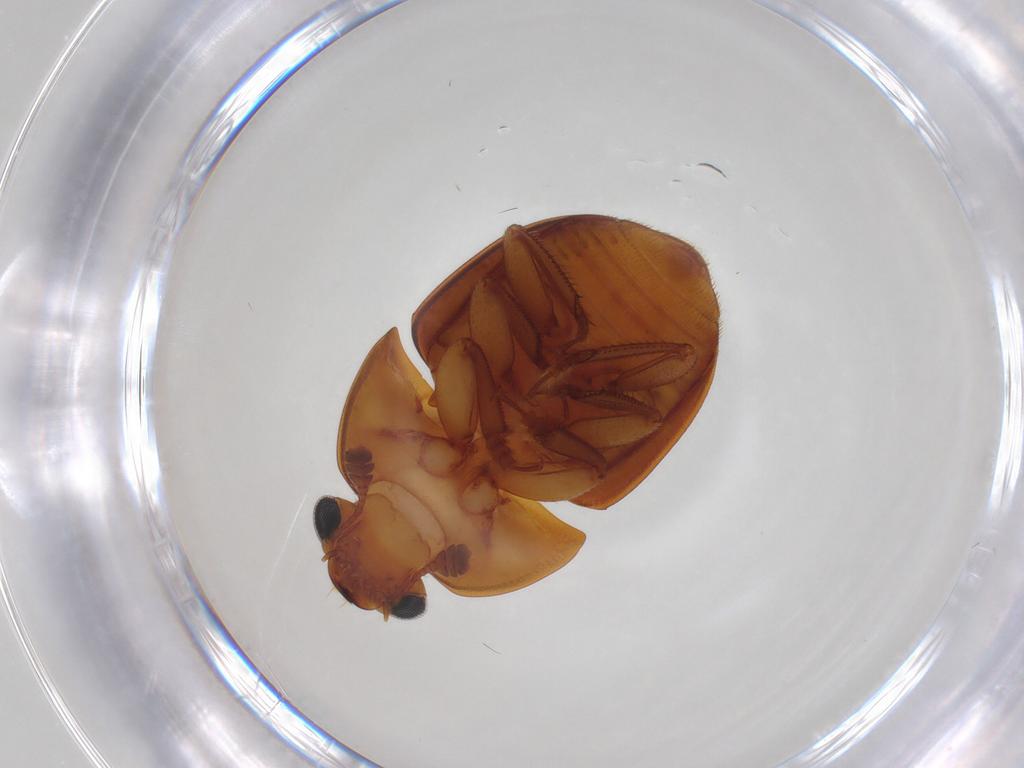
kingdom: Animalia
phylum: Arthropoda
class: Insecta
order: Coleoptera
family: Nitidulidae
